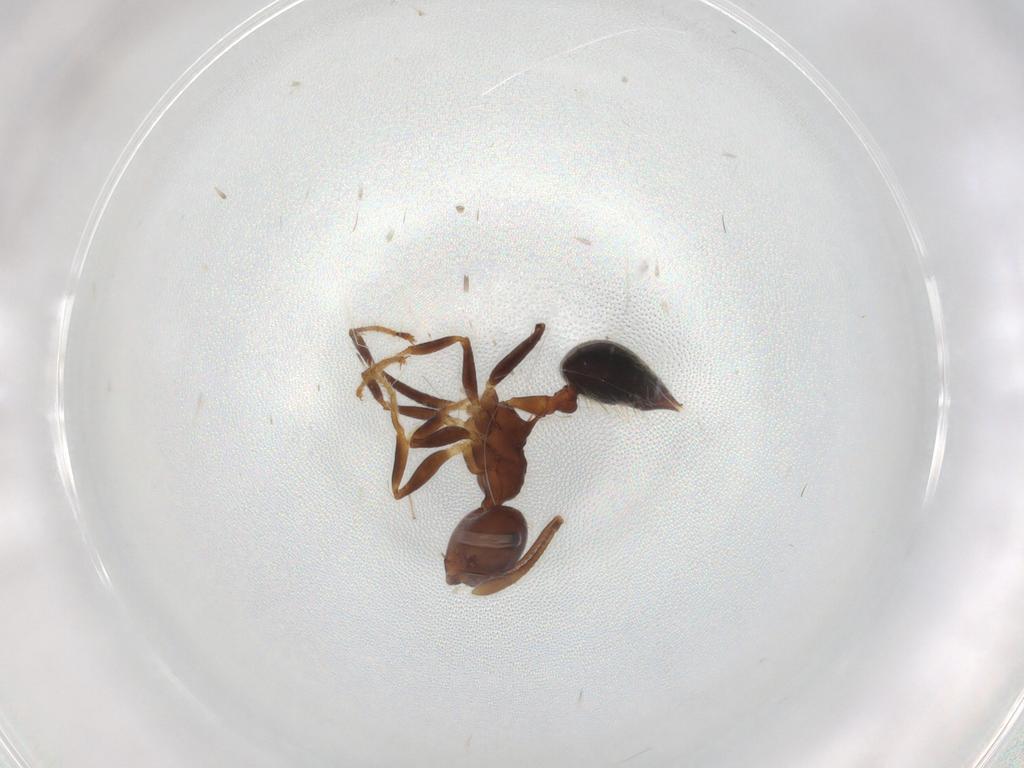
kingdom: Animalia
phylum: Arthropoda
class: Insecta
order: Hymenoptera
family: Formicidae
